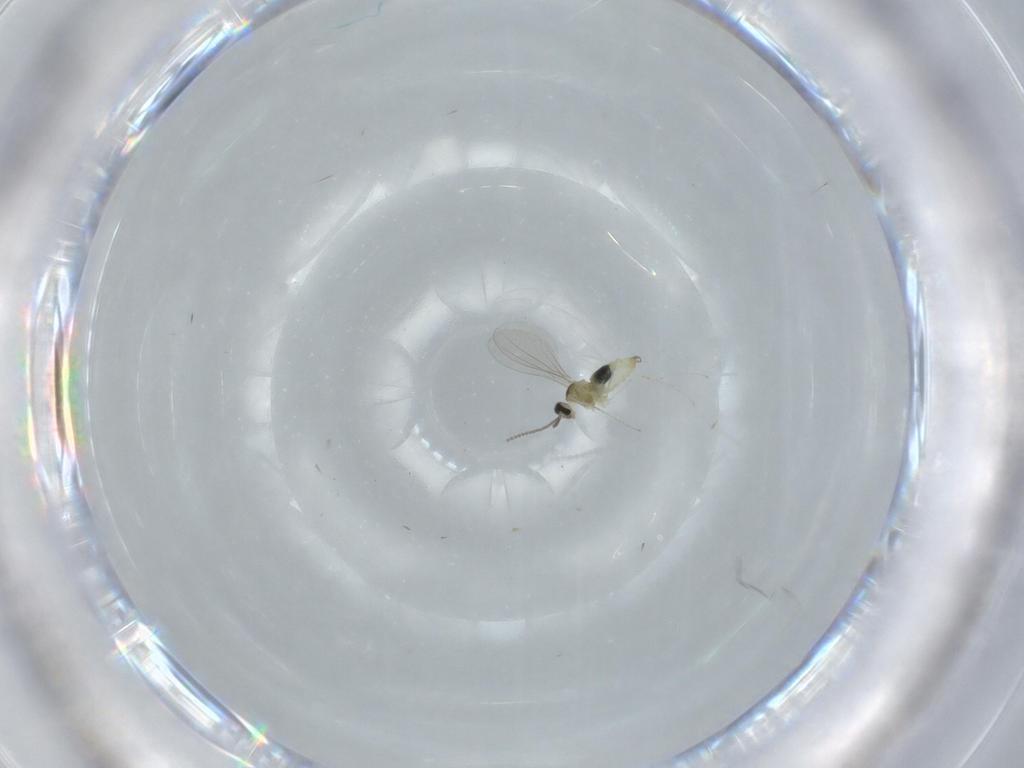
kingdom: Animalia
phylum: Arthropoda
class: Insecta
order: Diptera
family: Cecidomyiidae
